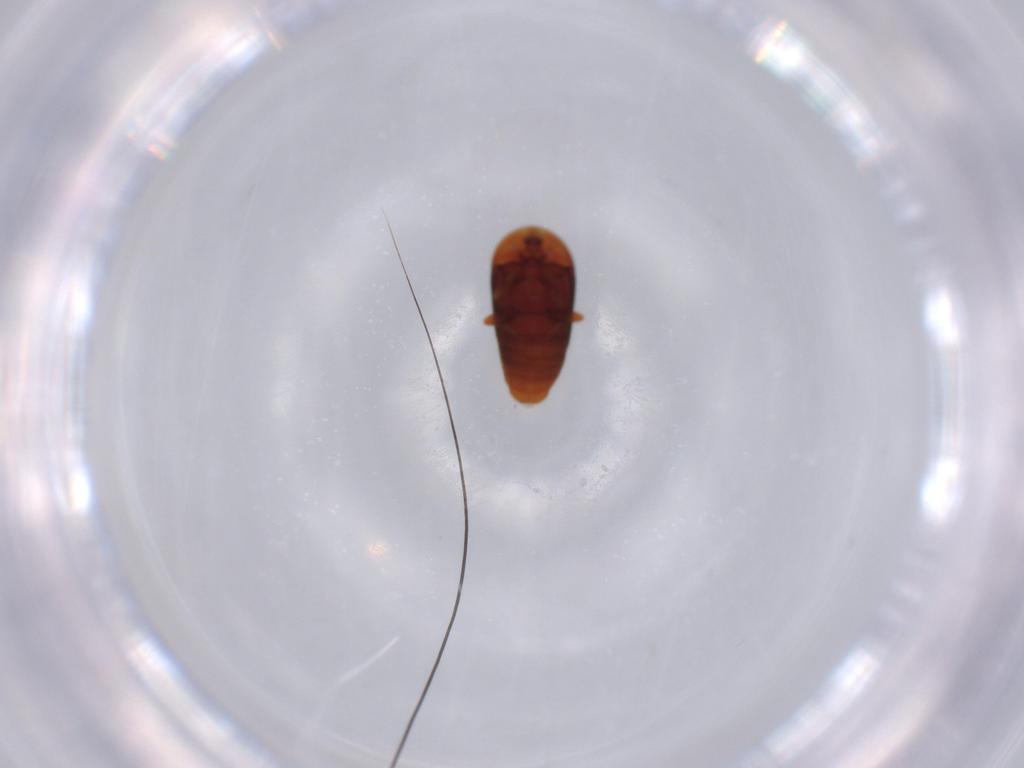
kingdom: Animalia
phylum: Arthropoda
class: Insecta
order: Coleoptera
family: Corylophidae
